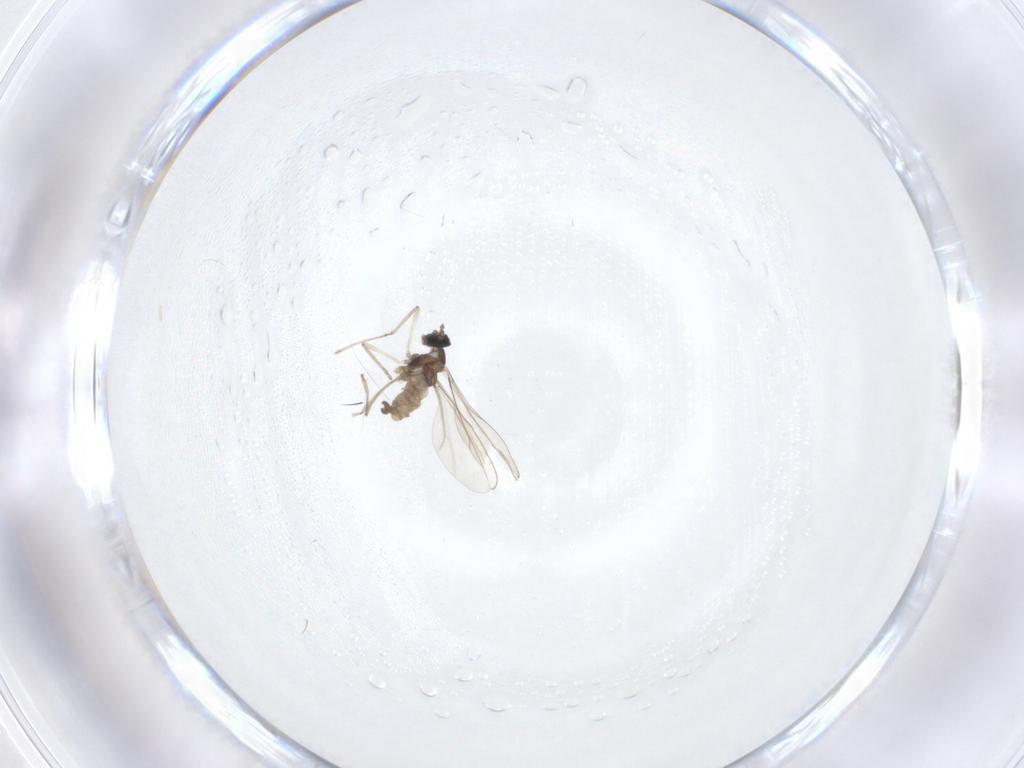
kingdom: Animalia
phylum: Arthropoda
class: Insecta
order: Diptera
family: Cecidomyiidae
